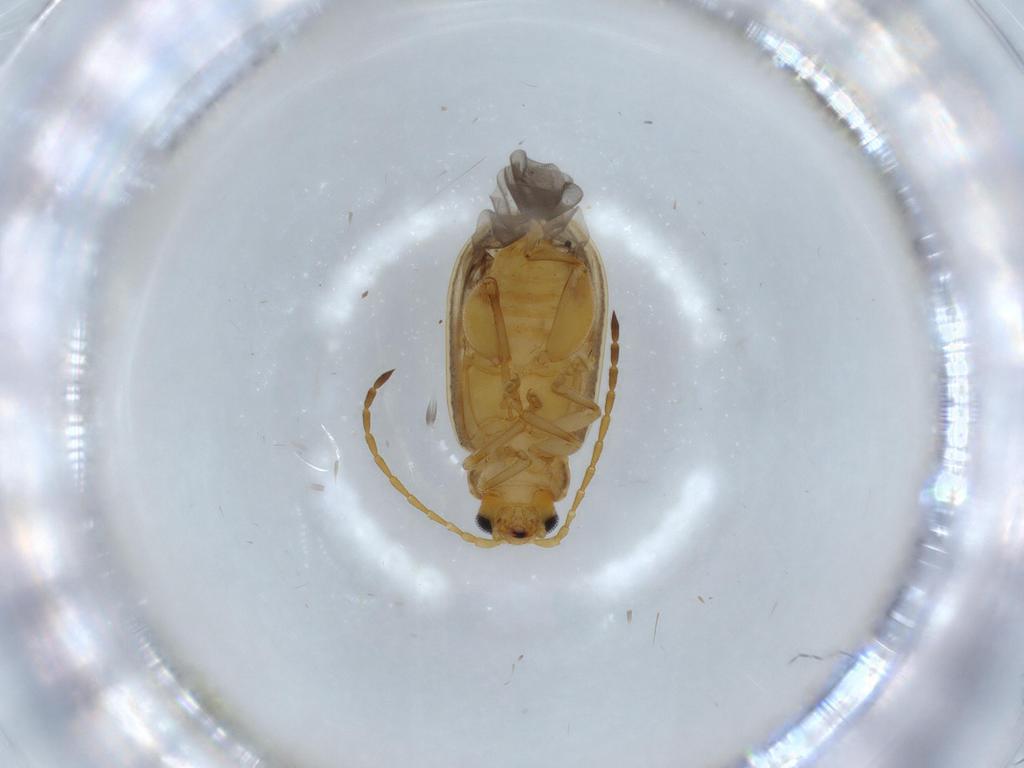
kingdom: Animalia
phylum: Arthropoda
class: Insecta
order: Coleoptera
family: Chrysomelidae
